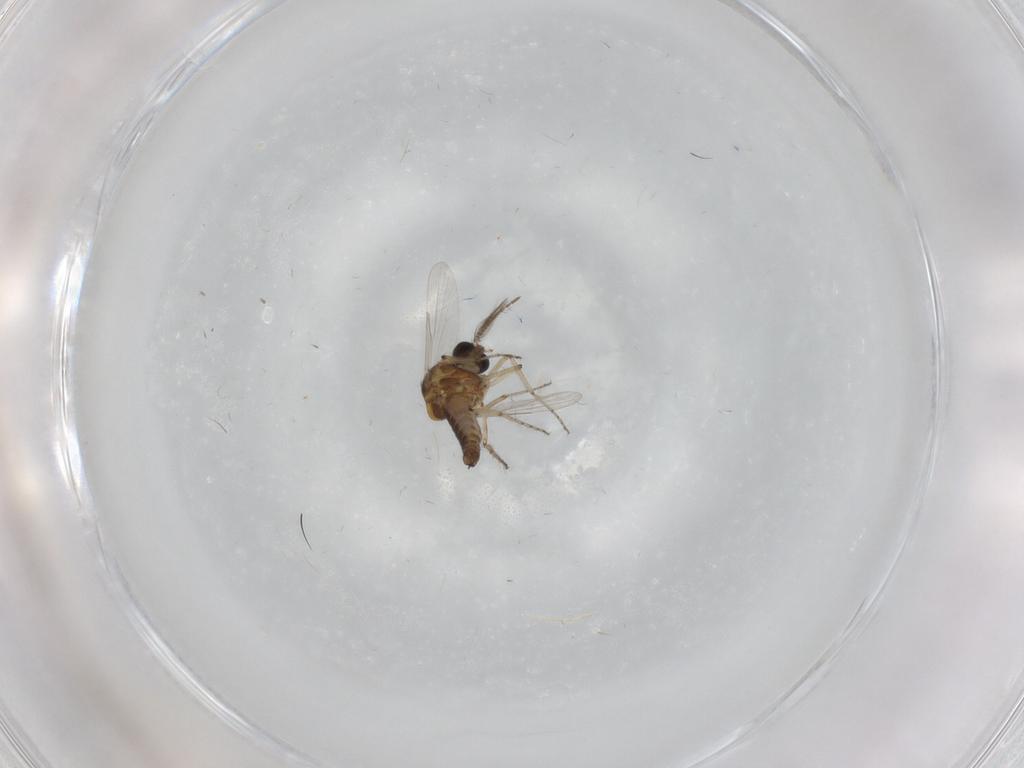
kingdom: Animalia
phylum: Arthropoda
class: Insecta
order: Diptera
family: Ceratopogonidae
